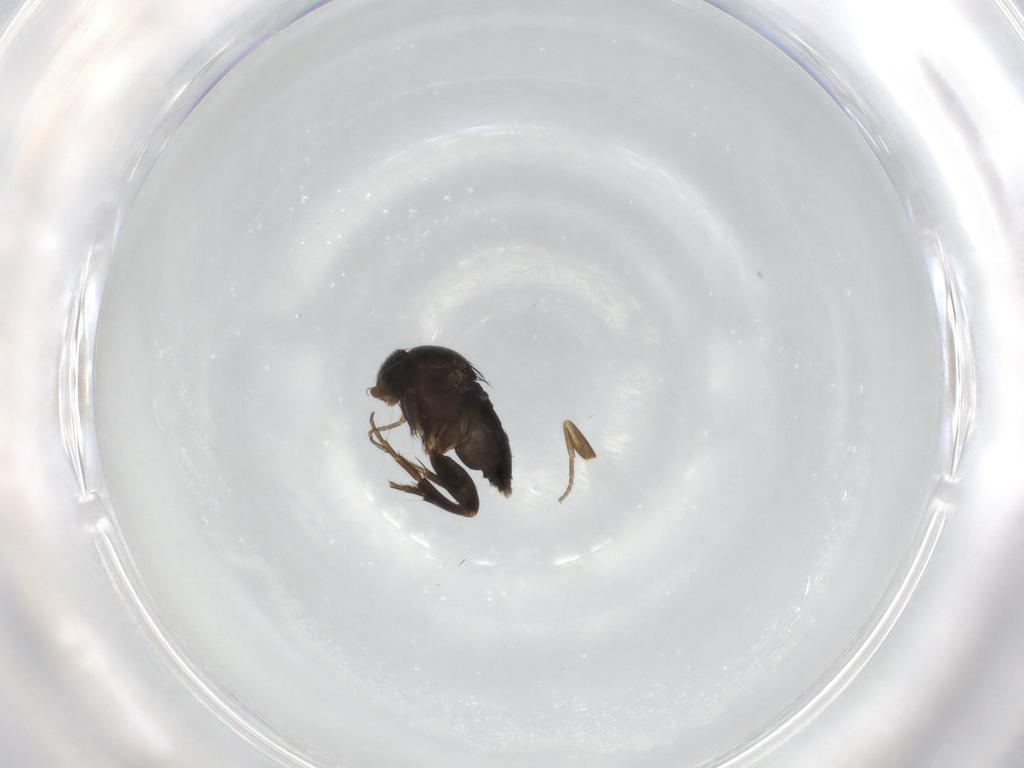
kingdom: Animalia
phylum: Arthropoda
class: Insecta
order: Diptera
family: Phoridae
